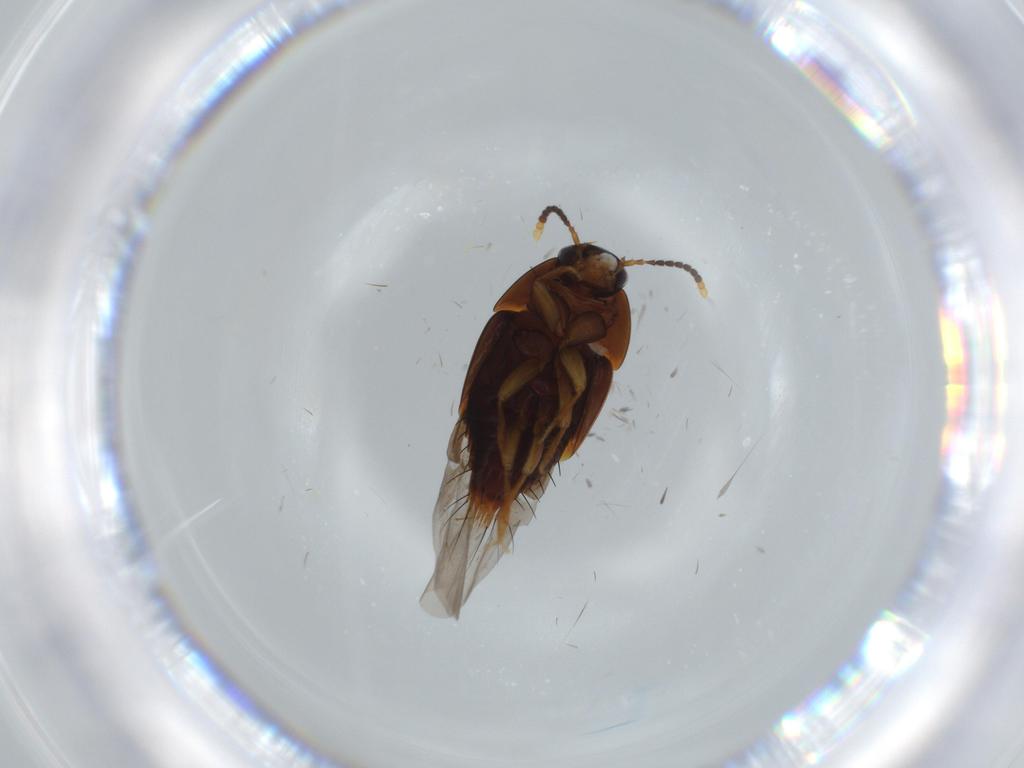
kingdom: Animalia
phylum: Arthropoda
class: Insecta
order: Coleoptera
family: Staphylinidae
